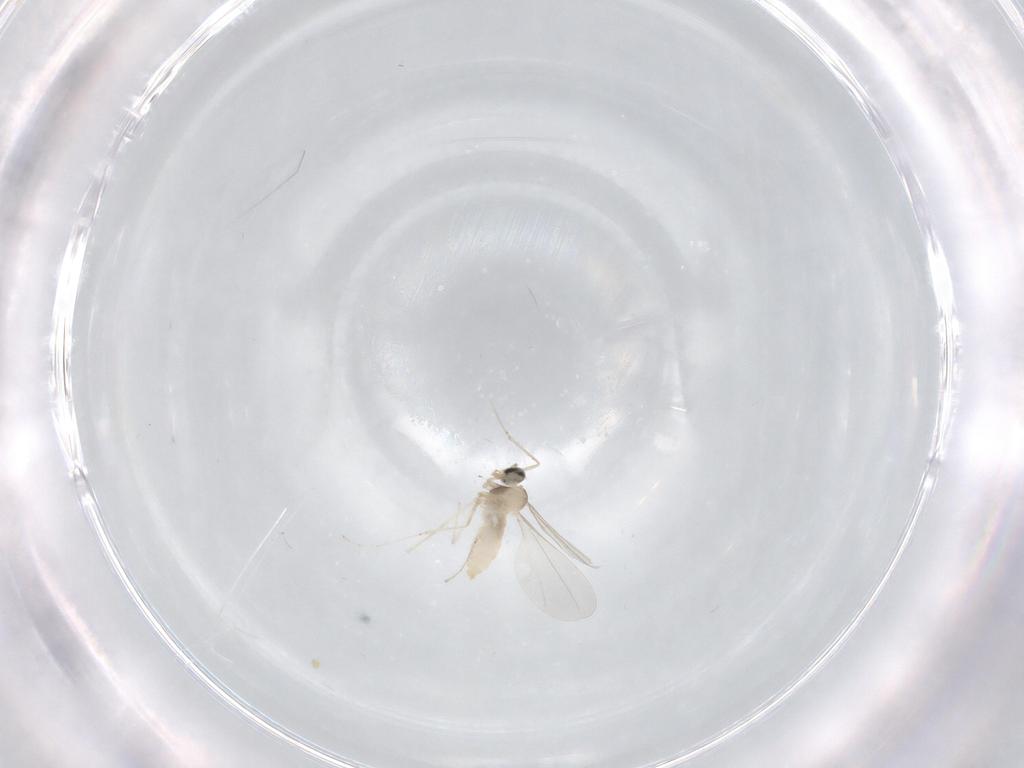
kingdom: Animalia
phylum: Arthropoda
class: Insecta
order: Diptera
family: Cecidomyiidae
